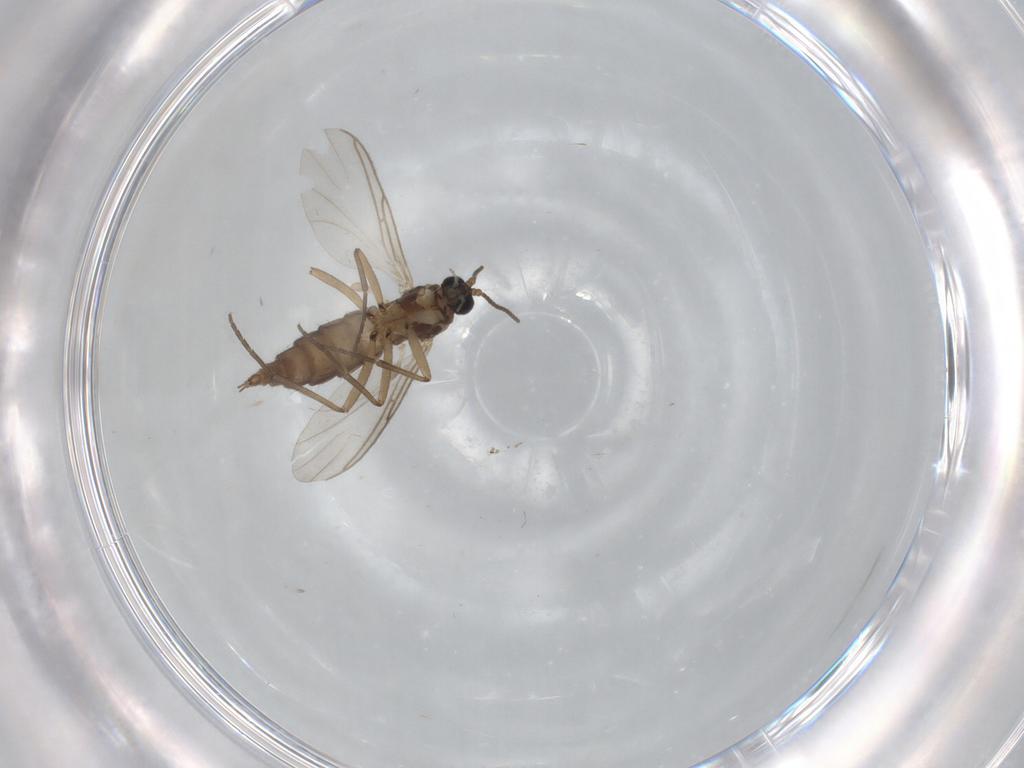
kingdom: Animalia
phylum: Arthropoda
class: Insecta
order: Diptera
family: Sciaridae
